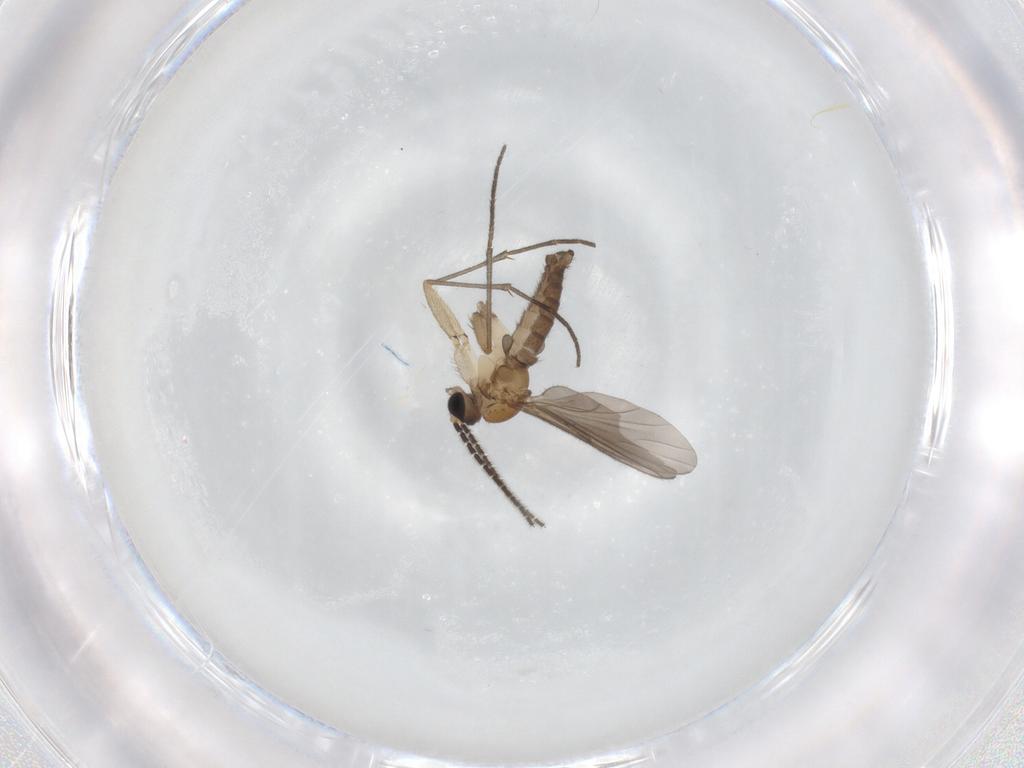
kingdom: Animalia
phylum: Arthropoda
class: Insecta
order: Diptera
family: Sciaridae
